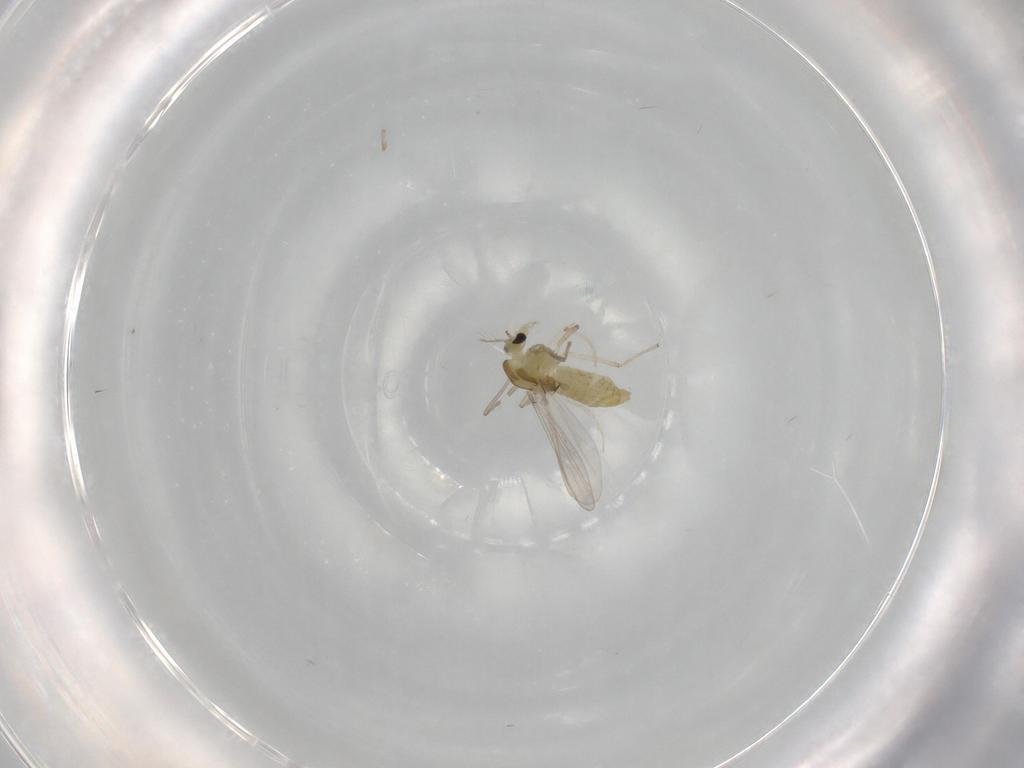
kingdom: Animalia
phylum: Arthropoda
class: Insecta
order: Diptera
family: Chironomidae
